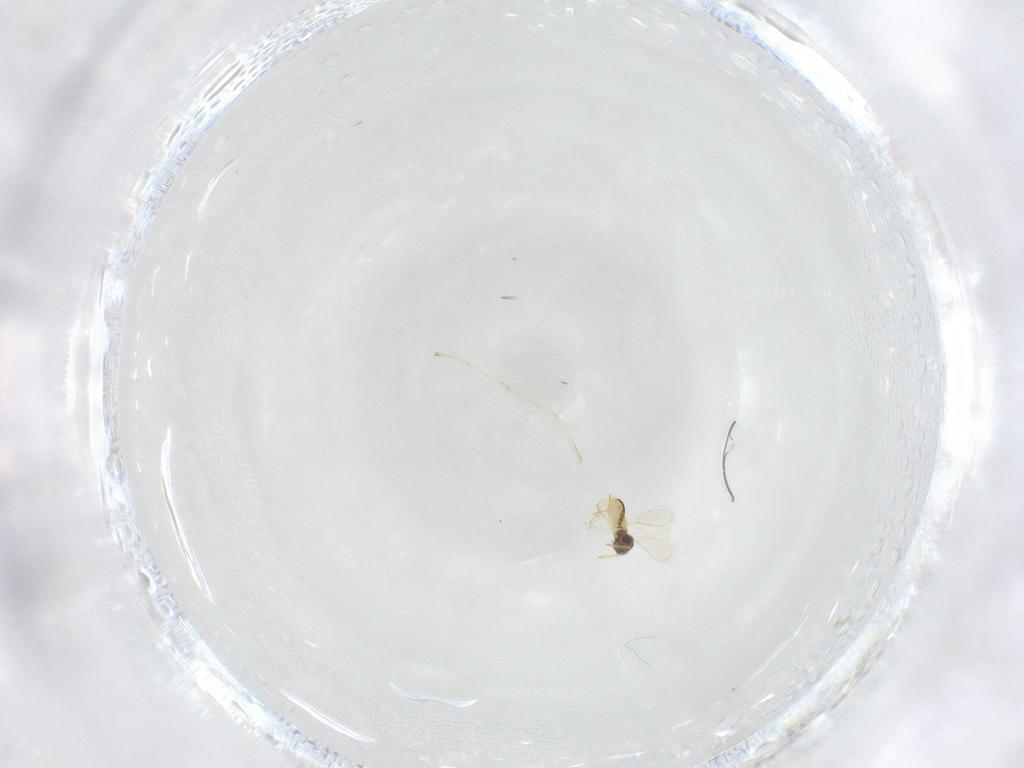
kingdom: Animalia
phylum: Arthropoda
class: Insecta
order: Hymenoptera
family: Aphelinidae
